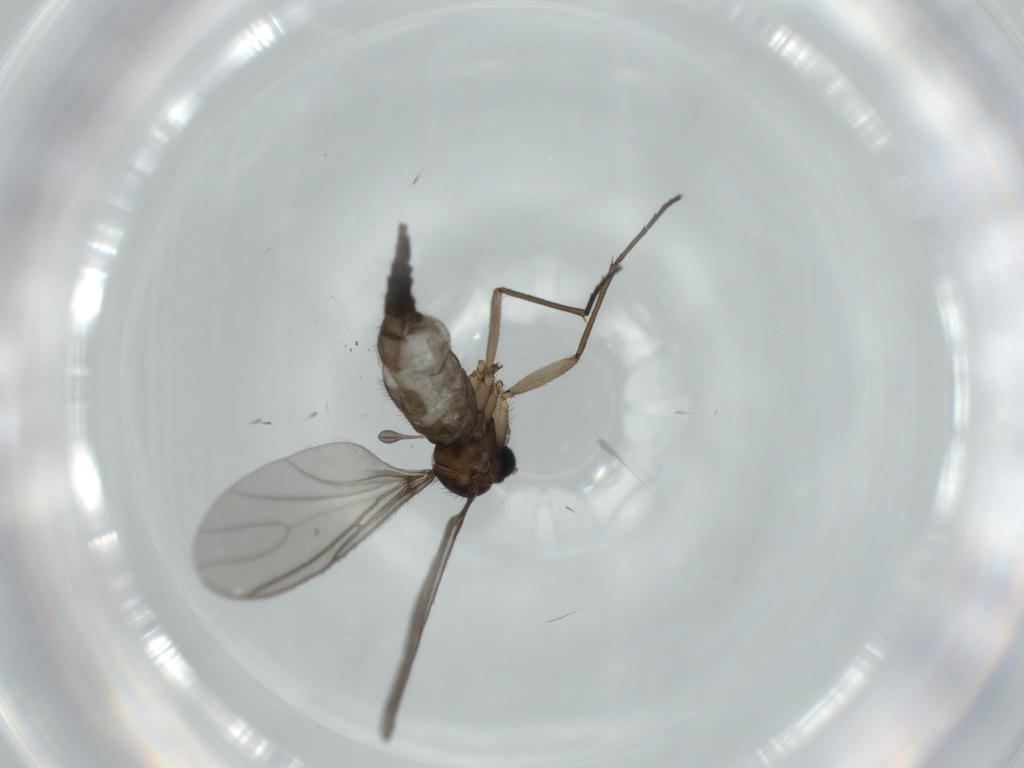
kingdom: Animalia
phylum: Arthropoda
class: Insecta
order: Diptera
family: Sciaridae
